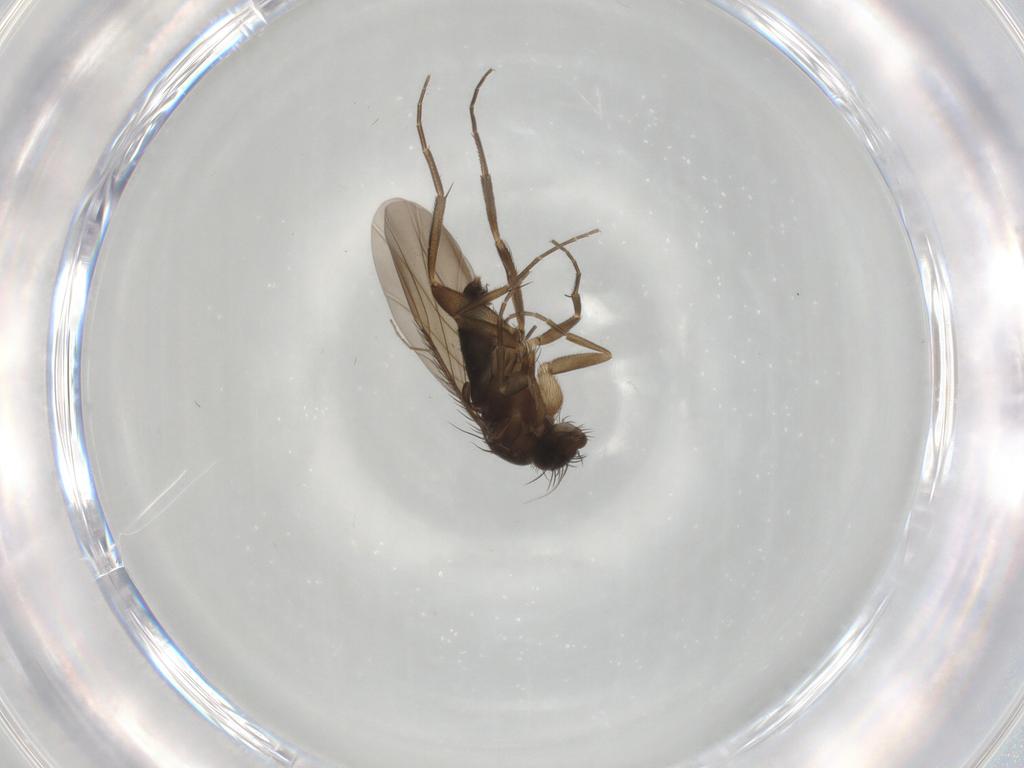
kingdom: Animalia
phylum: Arthropoda
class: Insecta
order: Diptera
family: Phoridae
